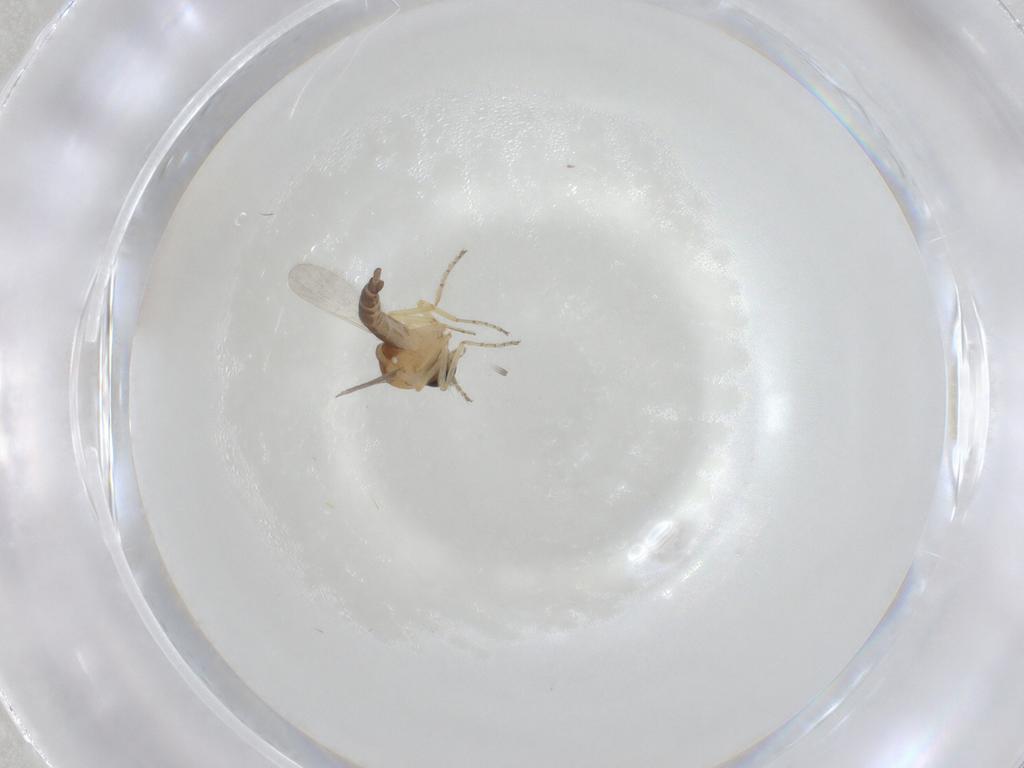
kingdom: Animalia
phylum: Arthropoda
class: Insecta
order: Diptera
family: Ceratopogonidae
